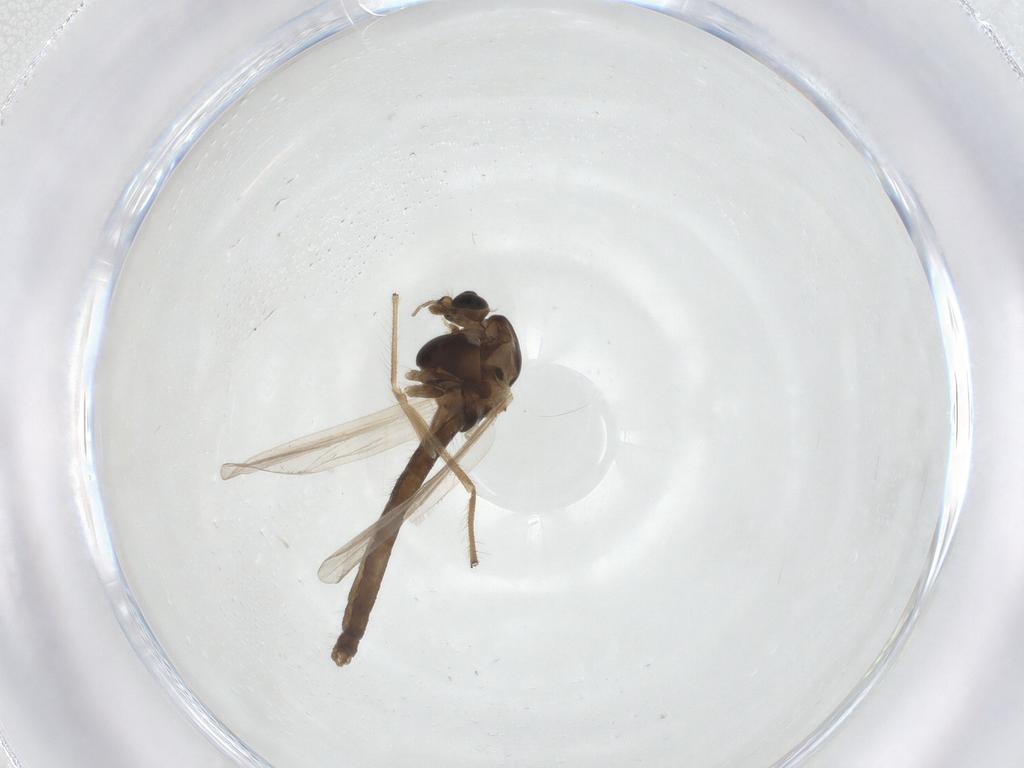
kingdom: Animalia
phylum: Arthropoda
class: Insecta
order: Diptera
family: Chironomidae
